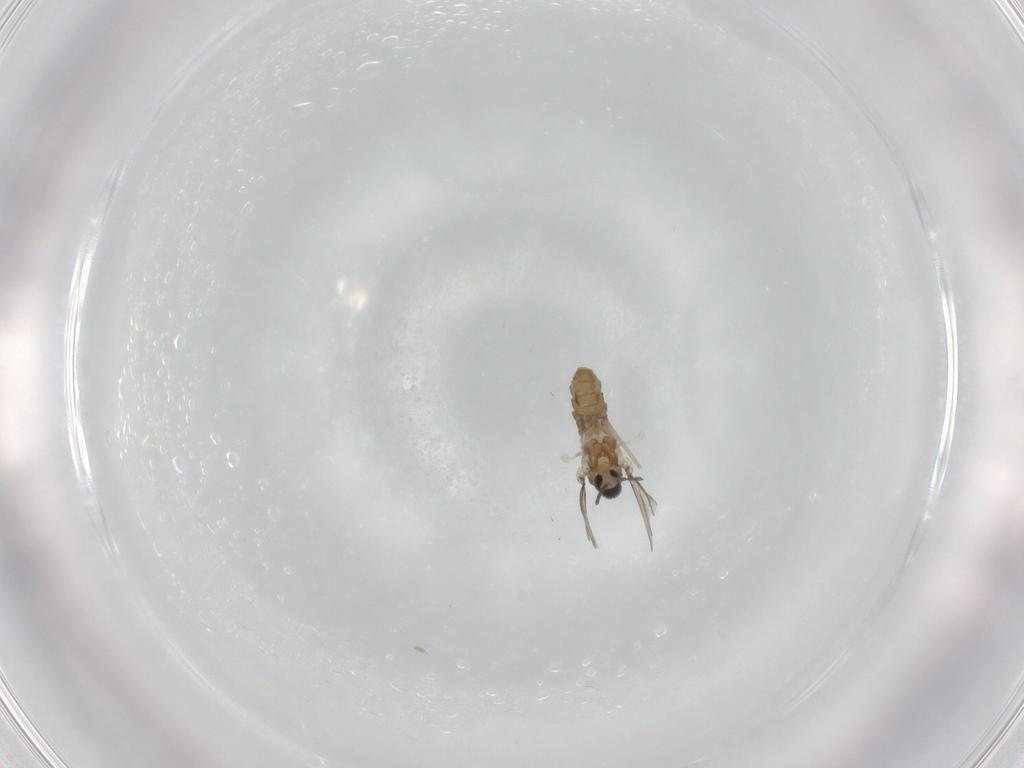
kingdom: Animalia
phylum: Arthropoda
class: Insecta
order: Diptera
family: Cecidomyiidae
